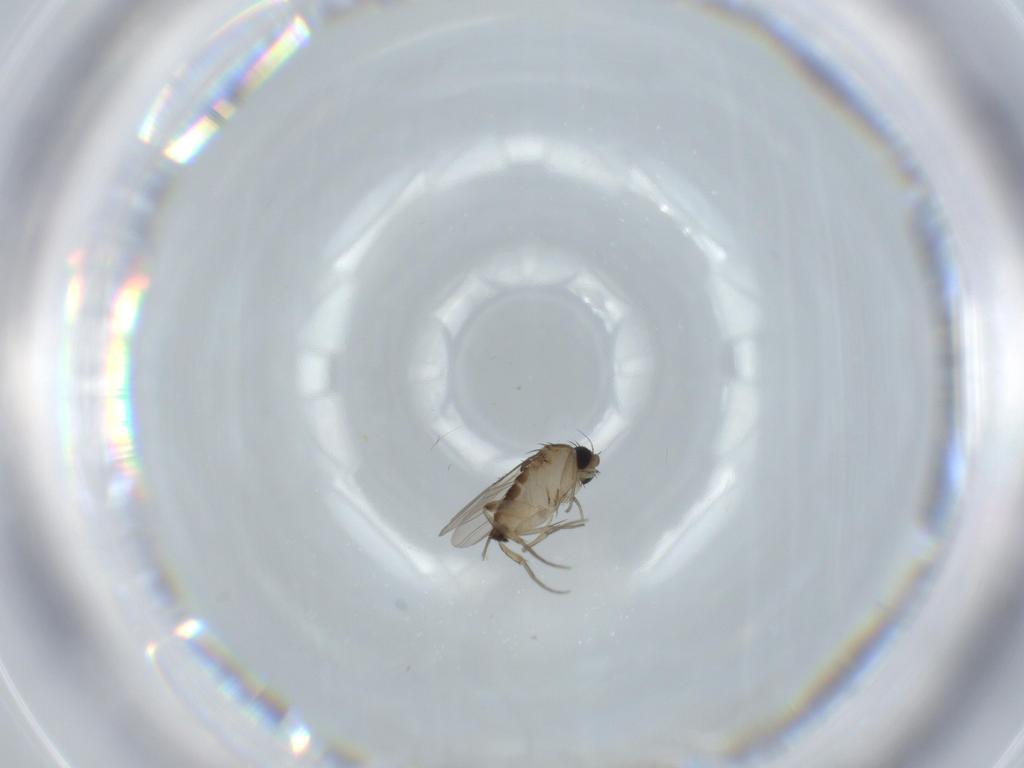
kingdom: Animalia
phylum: Arthropoda
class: Insecta
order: Diptera
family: Phoridae
